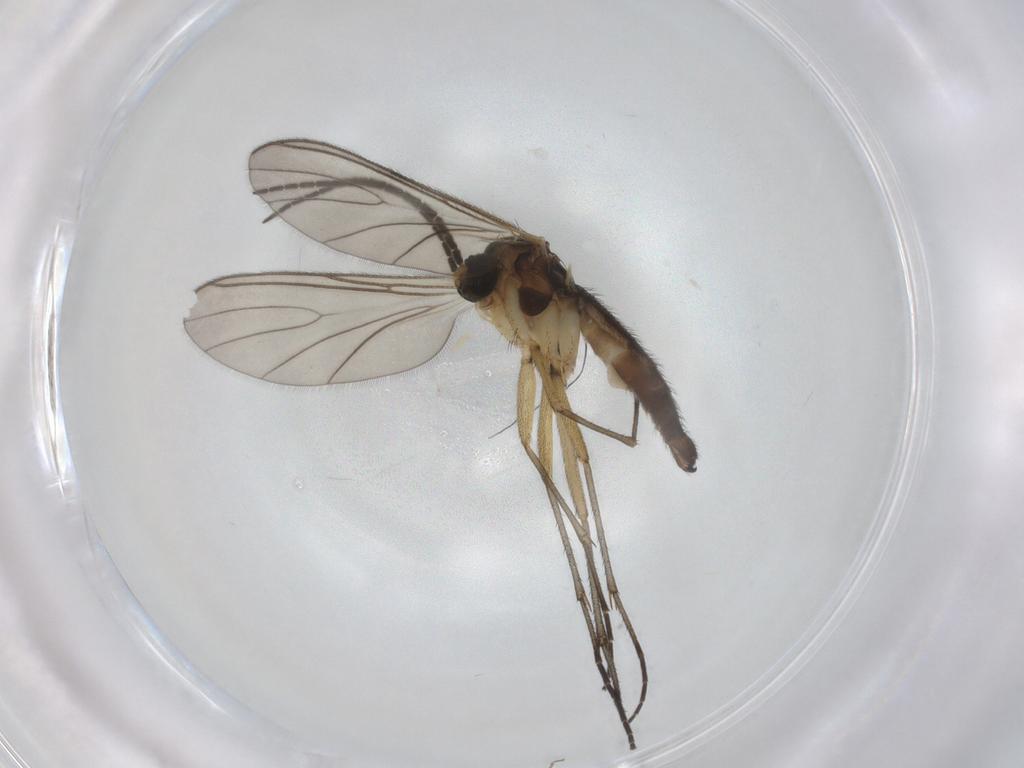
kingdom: Animalia
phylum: Arthropoda
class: Insecta
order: Diptera
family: Sciaridae
